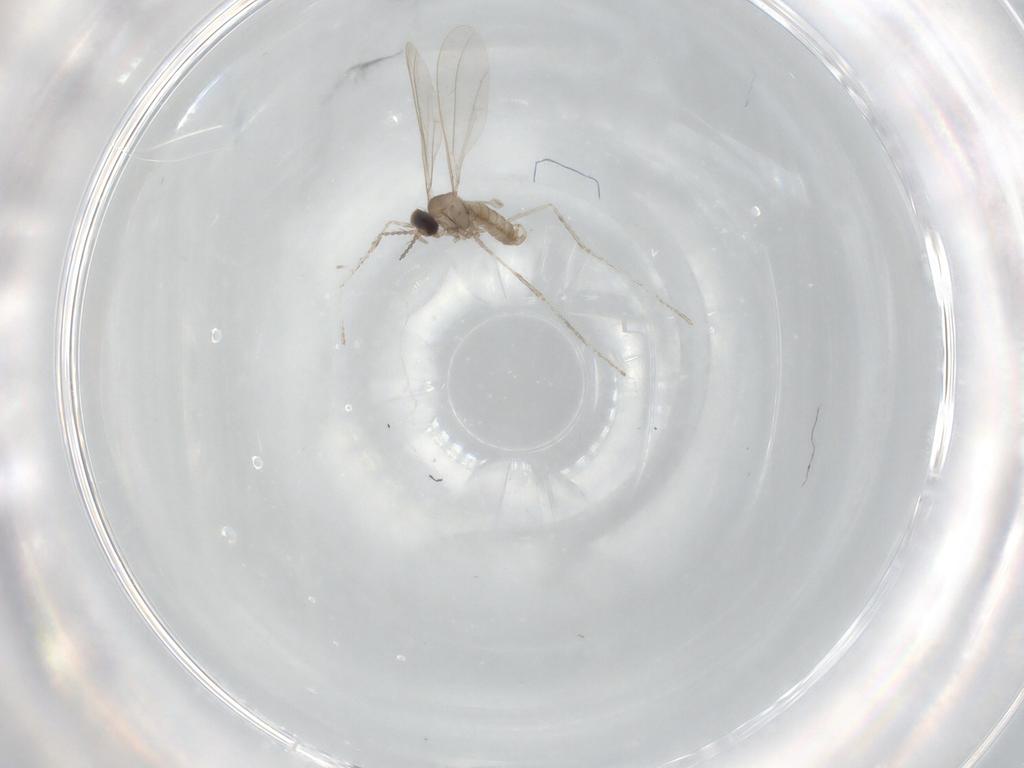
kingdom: Animalia
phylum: Arthropoda
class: Insecta
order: Diptera
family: Cecidomyiidae
